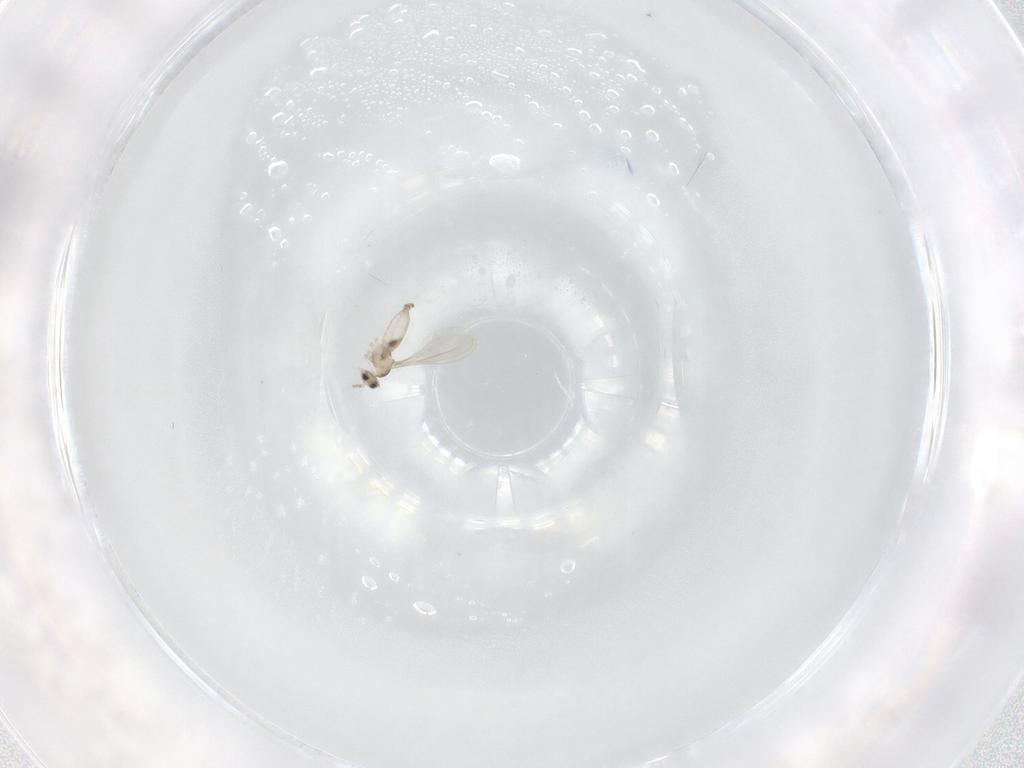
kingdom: Animalia
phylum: Arthropoda
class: Insecta
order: Diptera
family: Cecidomyiidae
